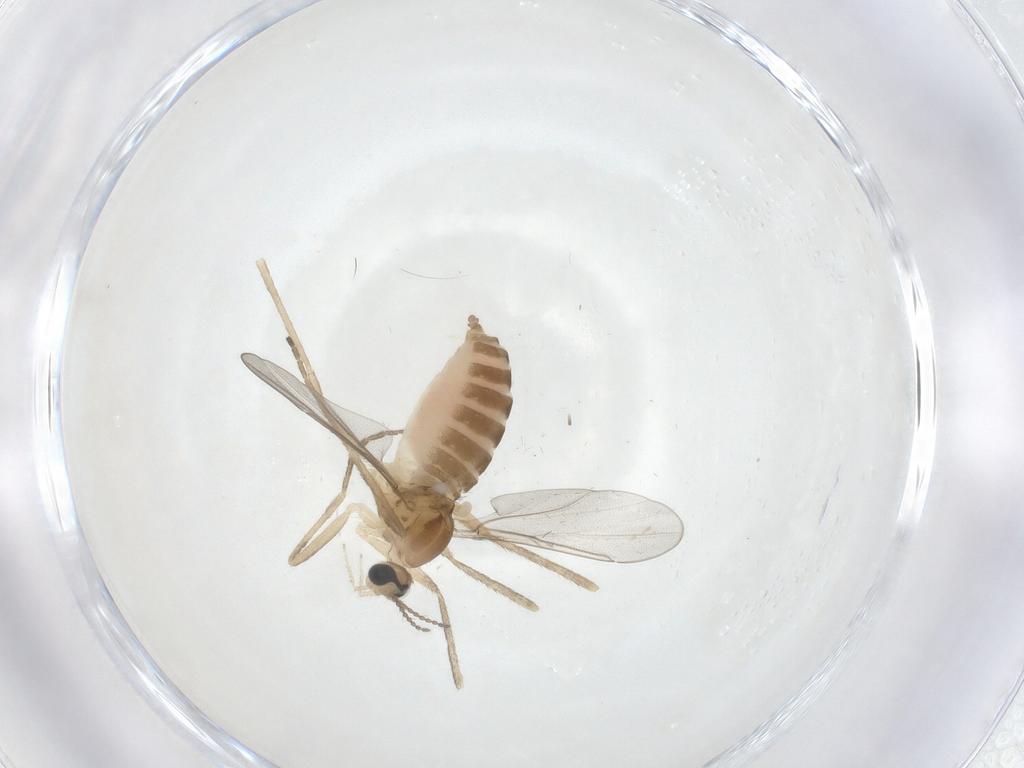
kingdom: Animalia
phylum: Arthropoda
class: Insecta
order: Diptera
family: Cecidomyiidae
